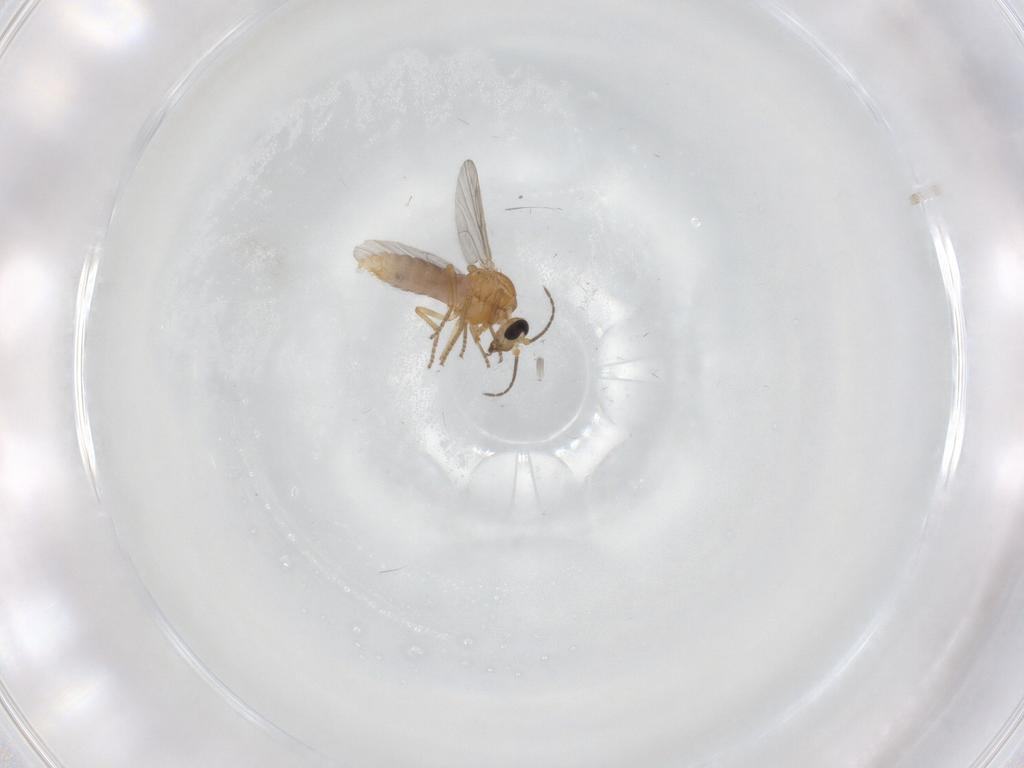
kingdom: Animalia
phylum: Arthropoda
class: Insecta
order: Diptera
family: Ceratopogonidae
